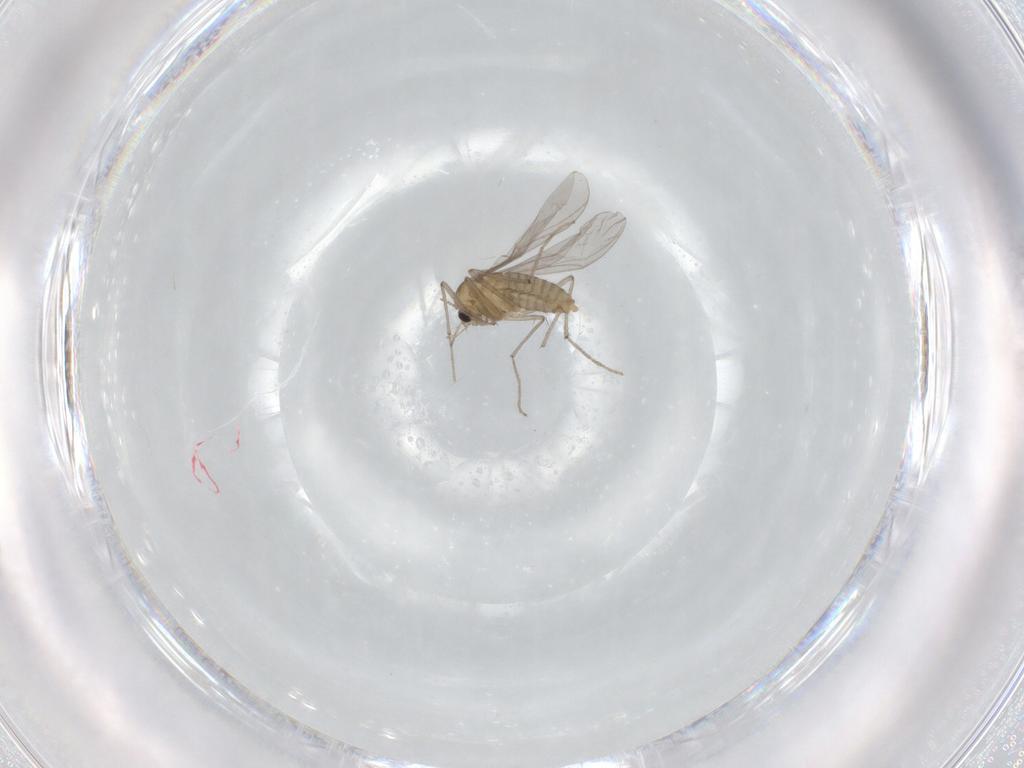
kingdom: Animalia
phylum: Arthropoda
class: Insecta
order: Diptera
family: Chironomidae
